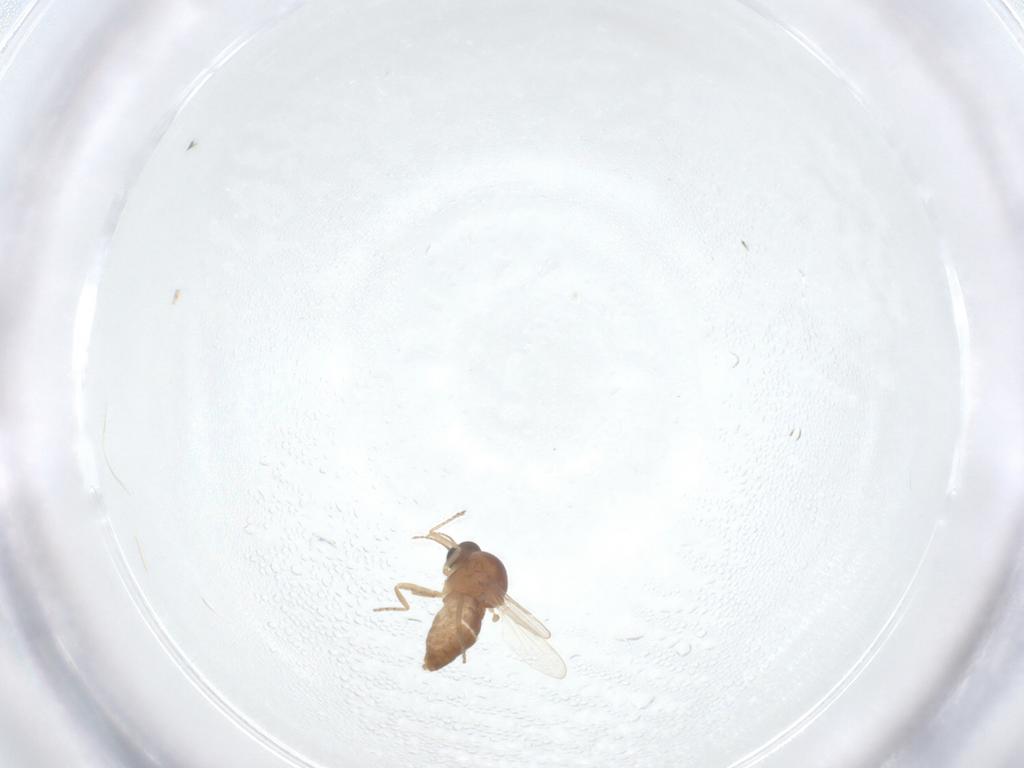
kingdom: Animalia
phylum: Arthropoda
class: Insecta
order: Diptera
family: Ceratopogonidae
